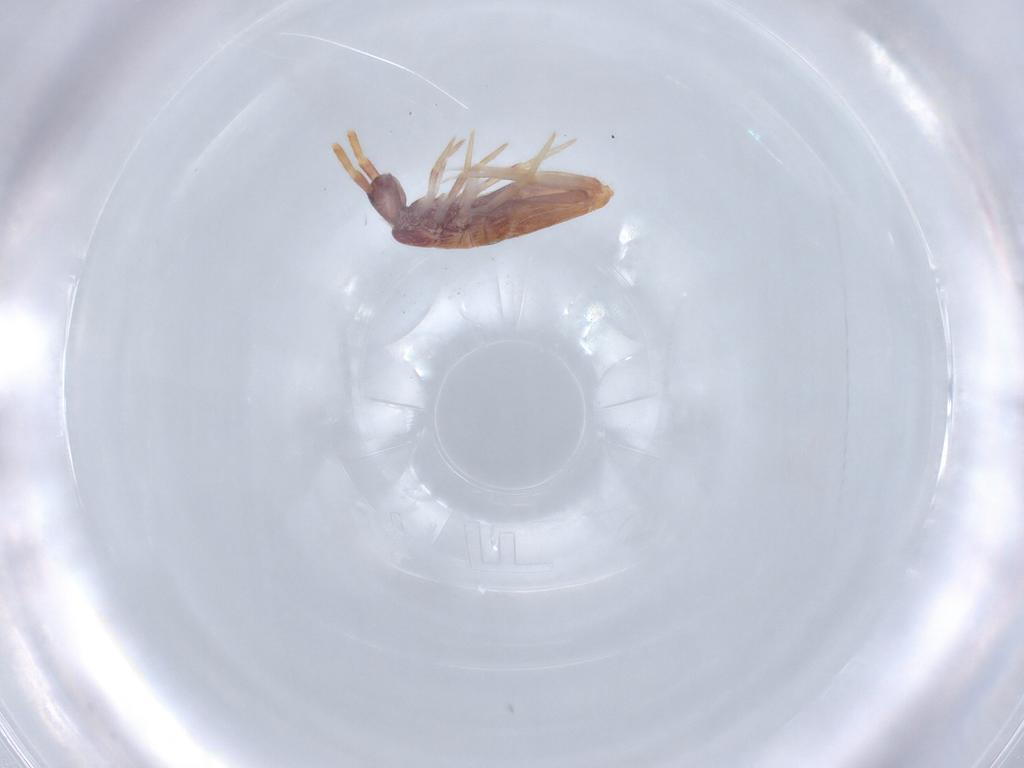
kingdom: Animalia
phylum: Arthropoda
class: Collembola
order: Entomobryomorpha
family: Entomobryidae
